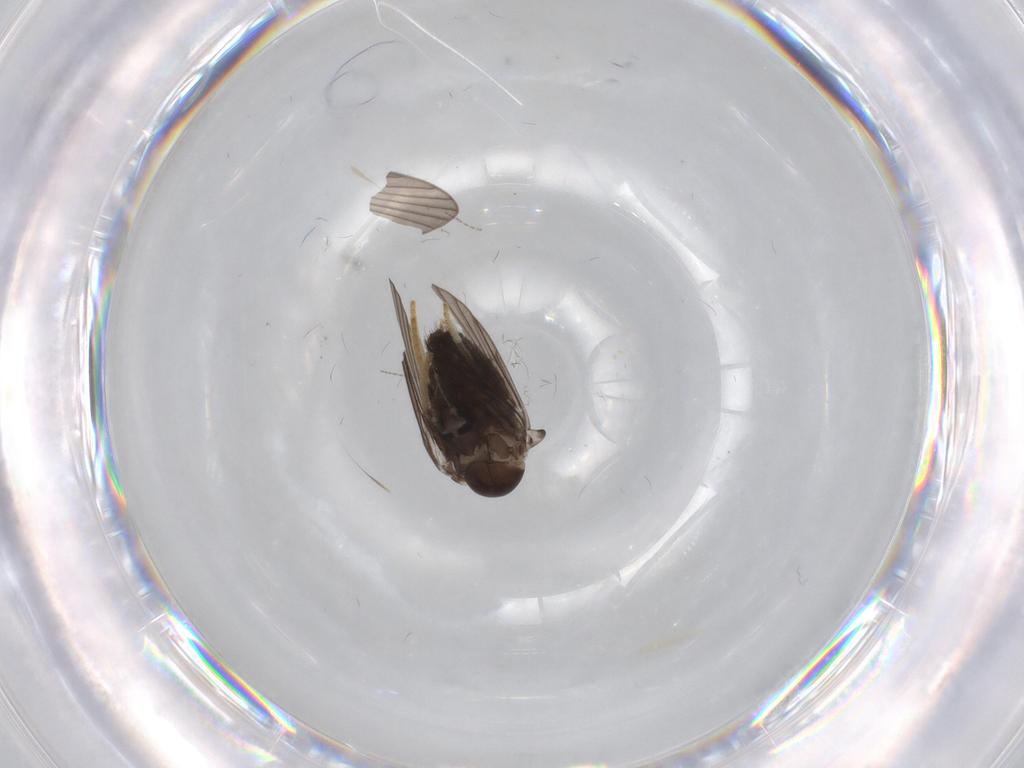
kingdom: Animalia
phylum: Arthropoda
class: Insecta
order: Diptera
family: Psychodidae
